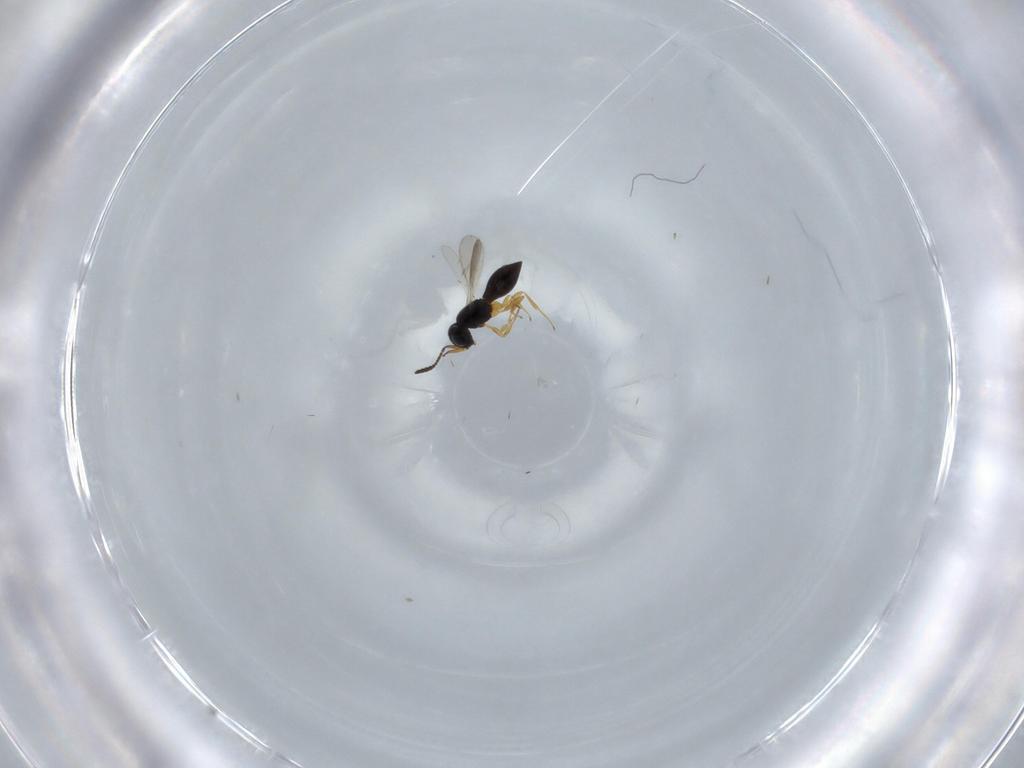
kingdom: Animalia
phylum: Arthropoda
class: Insecta
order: Hymenoptera
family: Scelionidae
